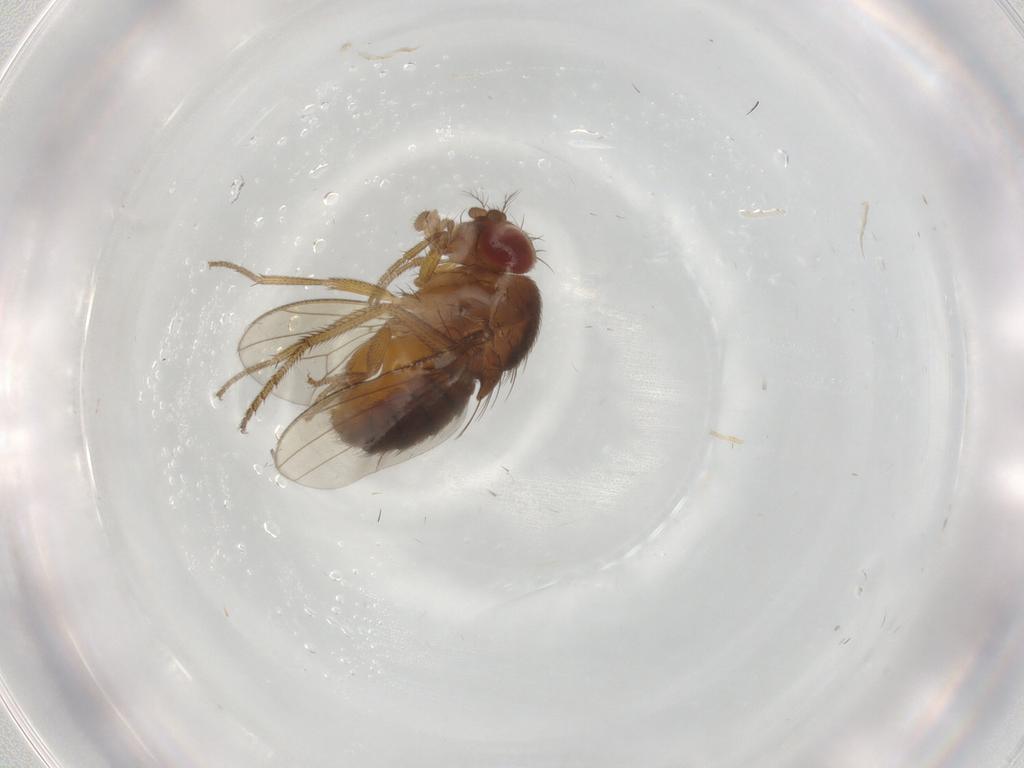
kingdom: Animalia
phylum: Arthropoda
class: Insecta
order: Diptera
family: Drosophilidae
